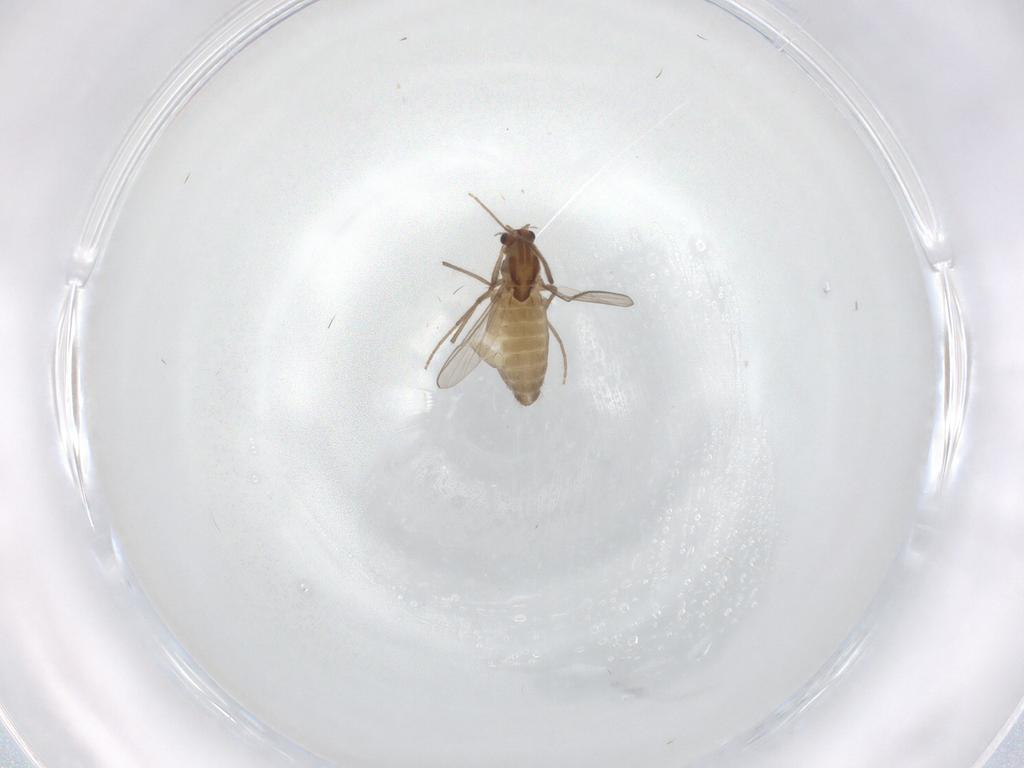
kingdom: Animalia
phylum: Arthropoda
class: Insecta
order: Diptera
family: Chironomidae
